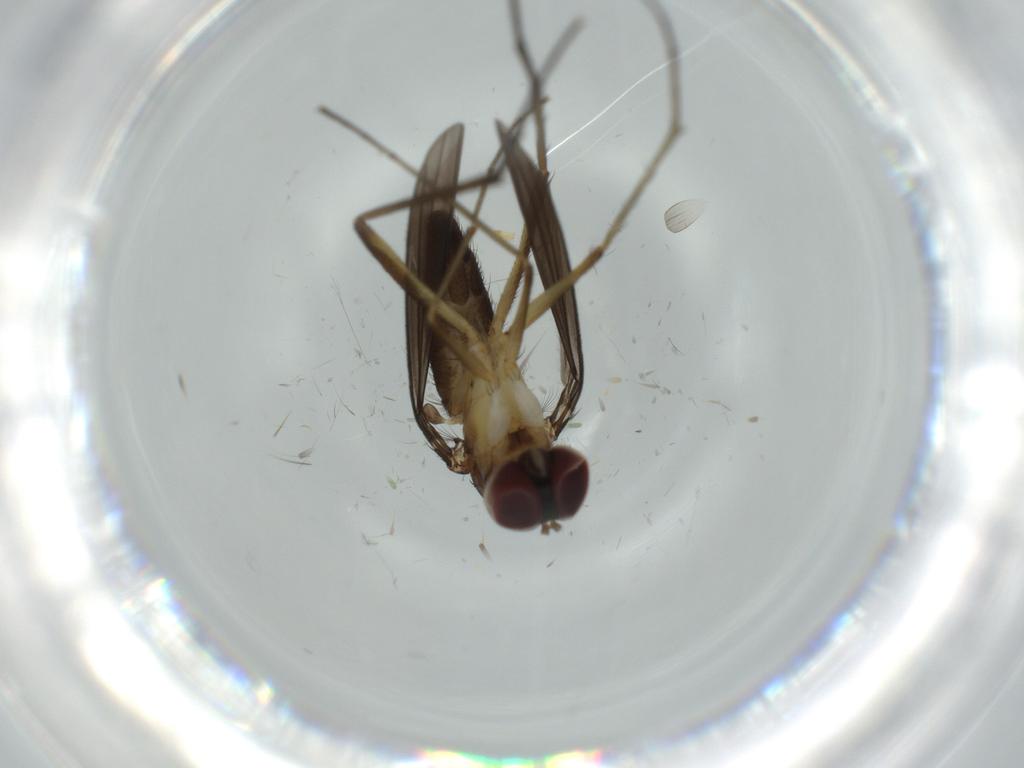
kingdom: Animalia
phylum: Arthropoda
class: Insecta
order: Diptera
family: Dolichopodidae
